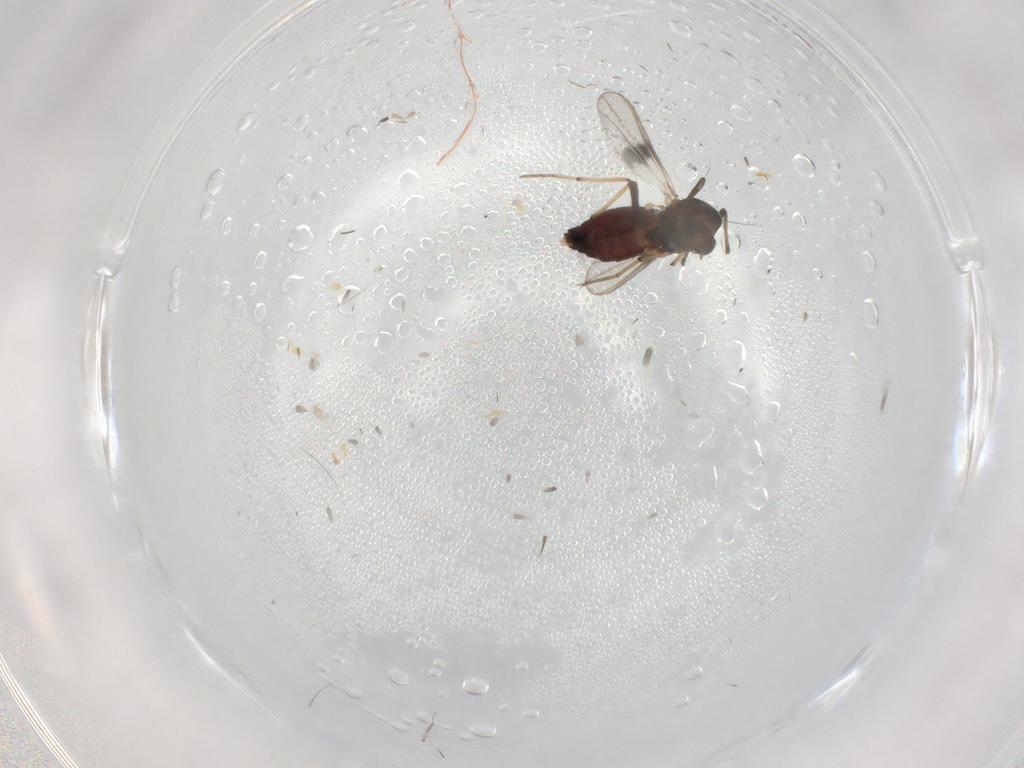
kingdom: Animalia
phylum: Arthropoda
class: Insecta
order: Diptera
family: Chironomidae
